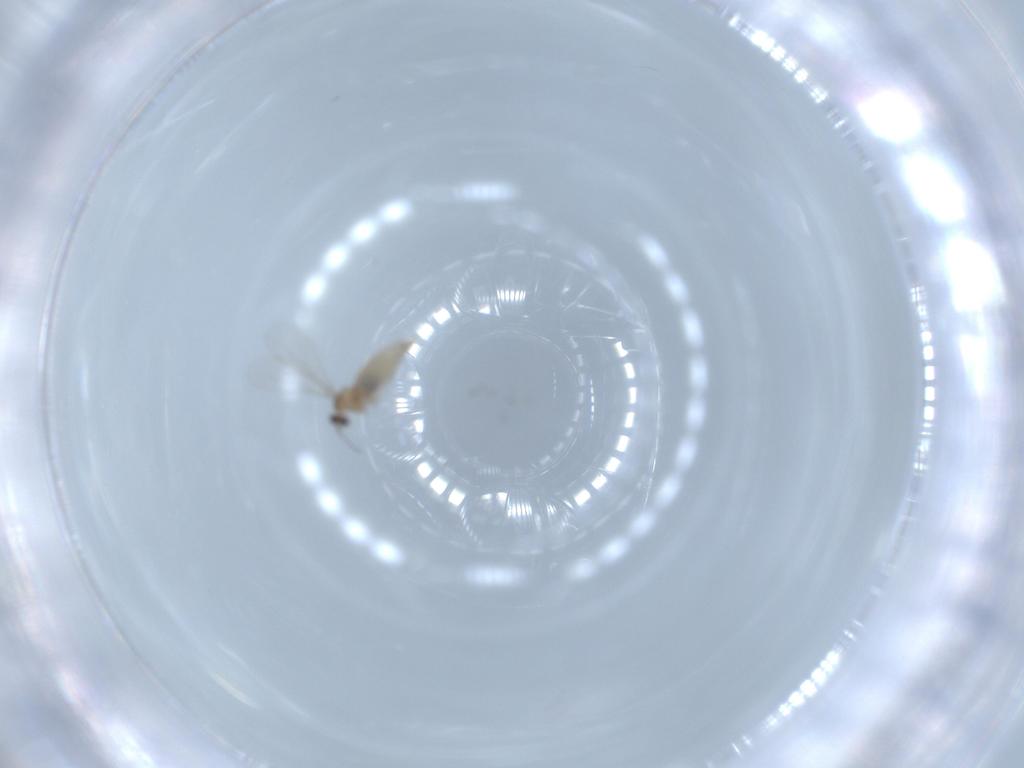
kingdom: Animalia
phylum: Arthropoda
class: Insecta
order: Diptera
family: Cecidomyiidae
